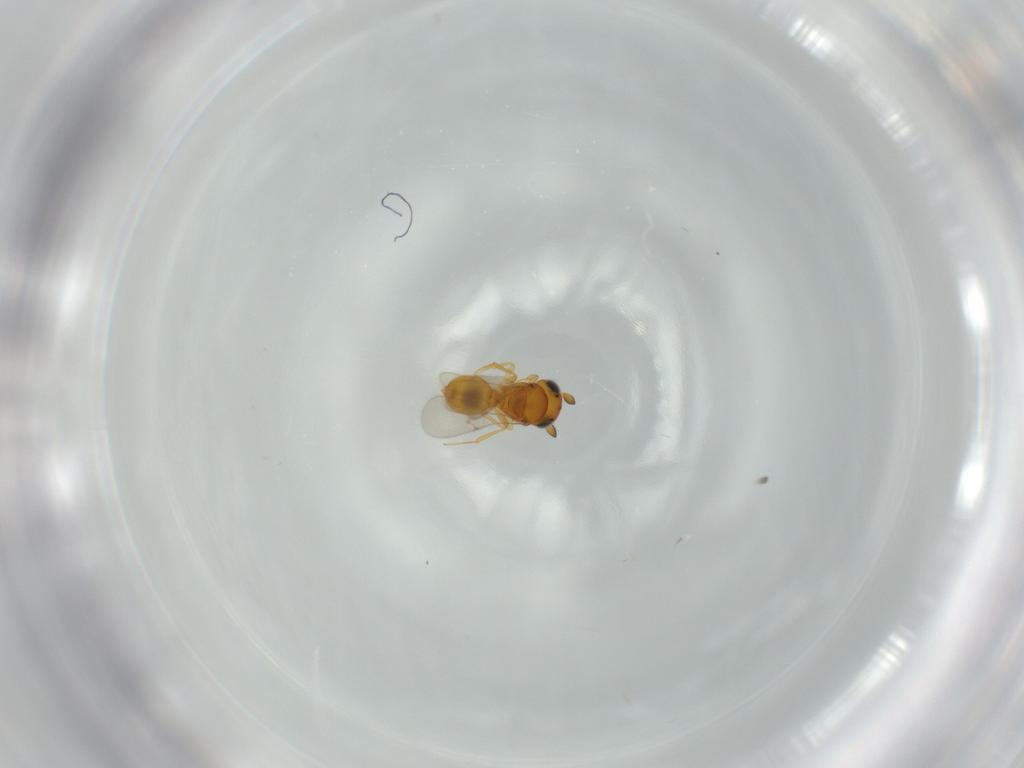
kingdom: Animalia
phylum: Arthropoda
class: Insecta
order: Hymenoptera
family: Scelionidae
